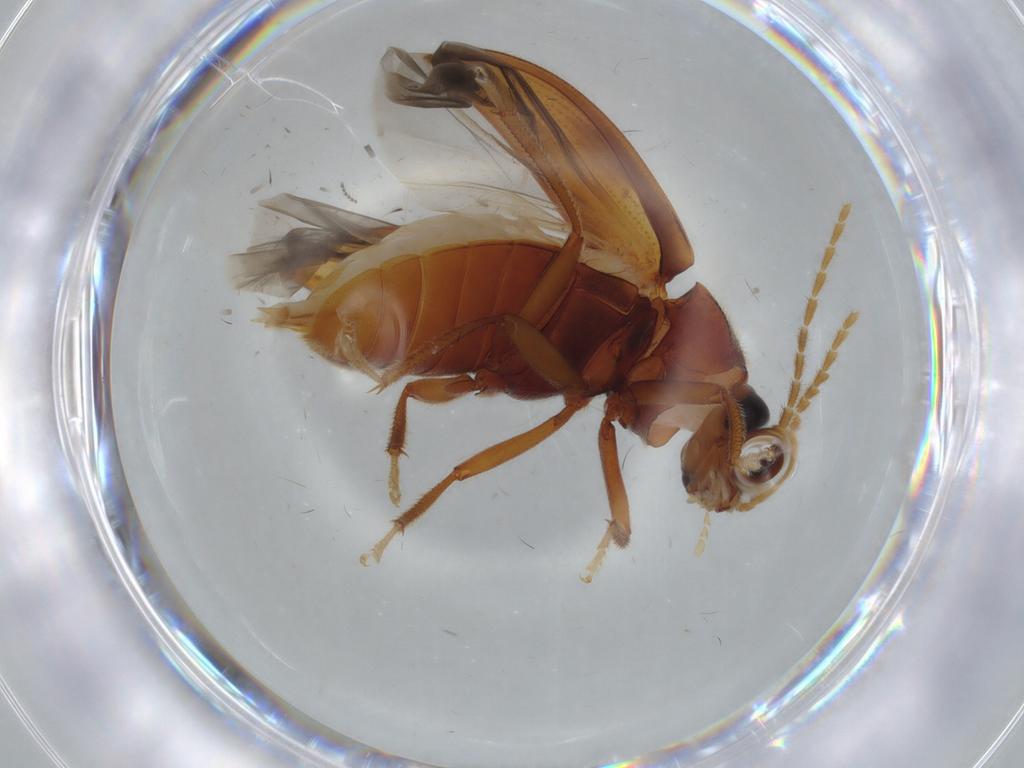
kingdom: Animalia
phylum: Arthropoda
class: Insecta
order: Coleoptera
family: Ptilodactylidae
